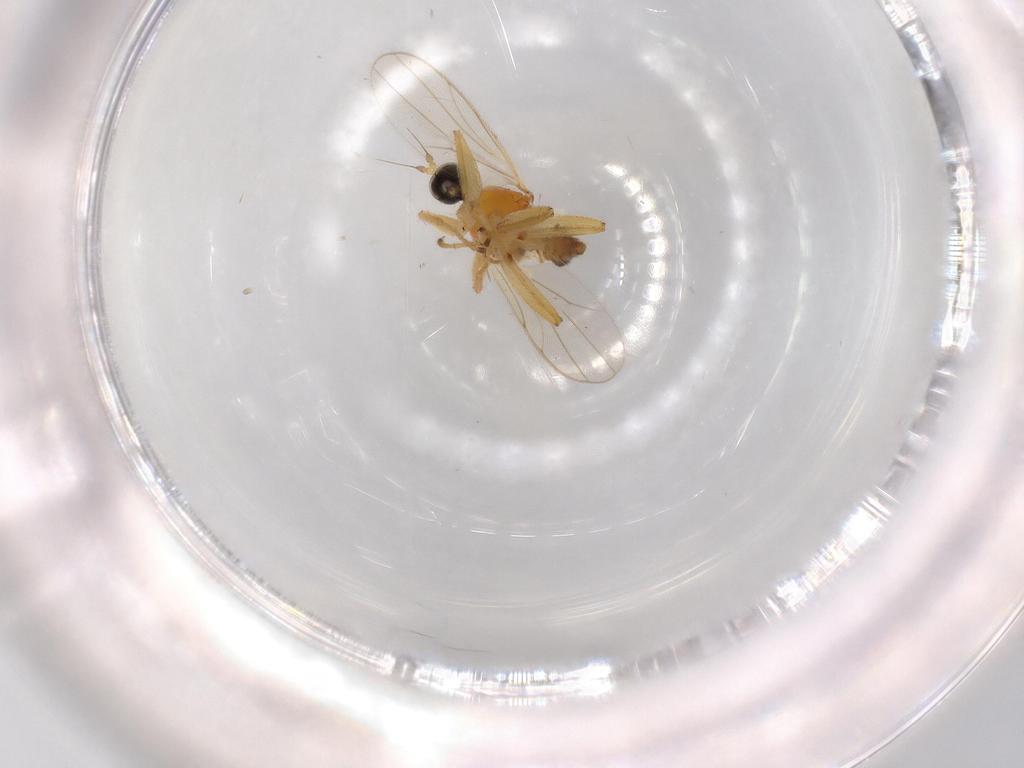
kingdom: Animalia
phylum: Arthropoda
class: Insecta
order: Diptera
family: Hybotidae
